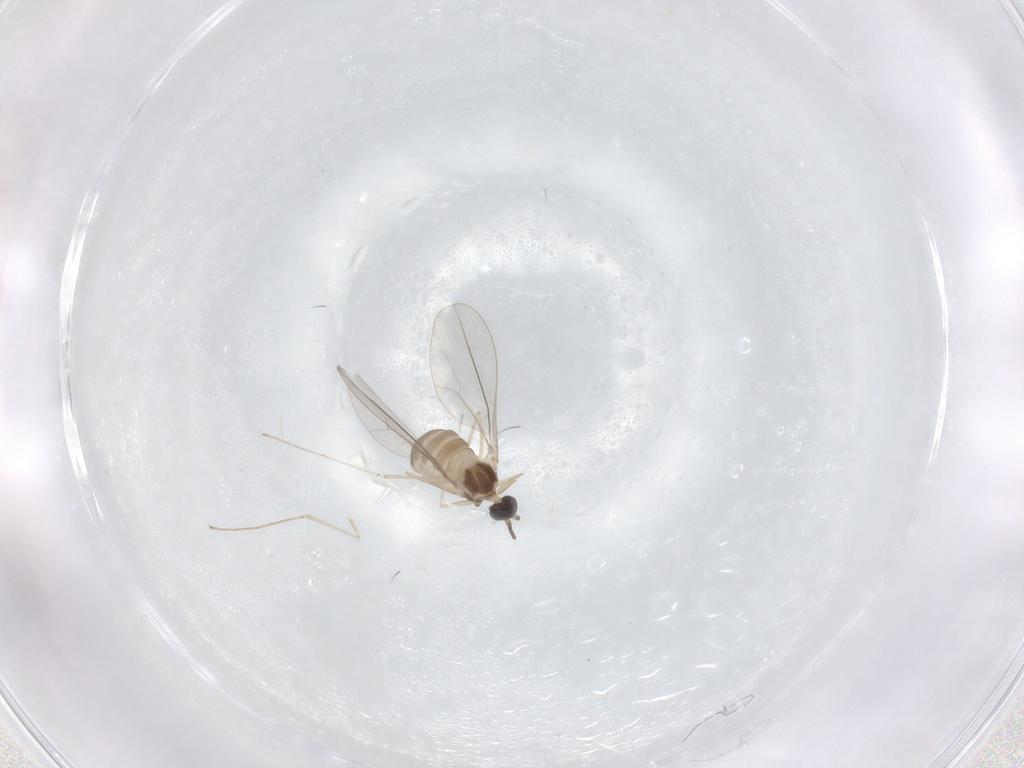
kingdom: Animalia
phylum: Arthropoda
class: Insecta
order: Diptera
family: Cecidomyiidae
